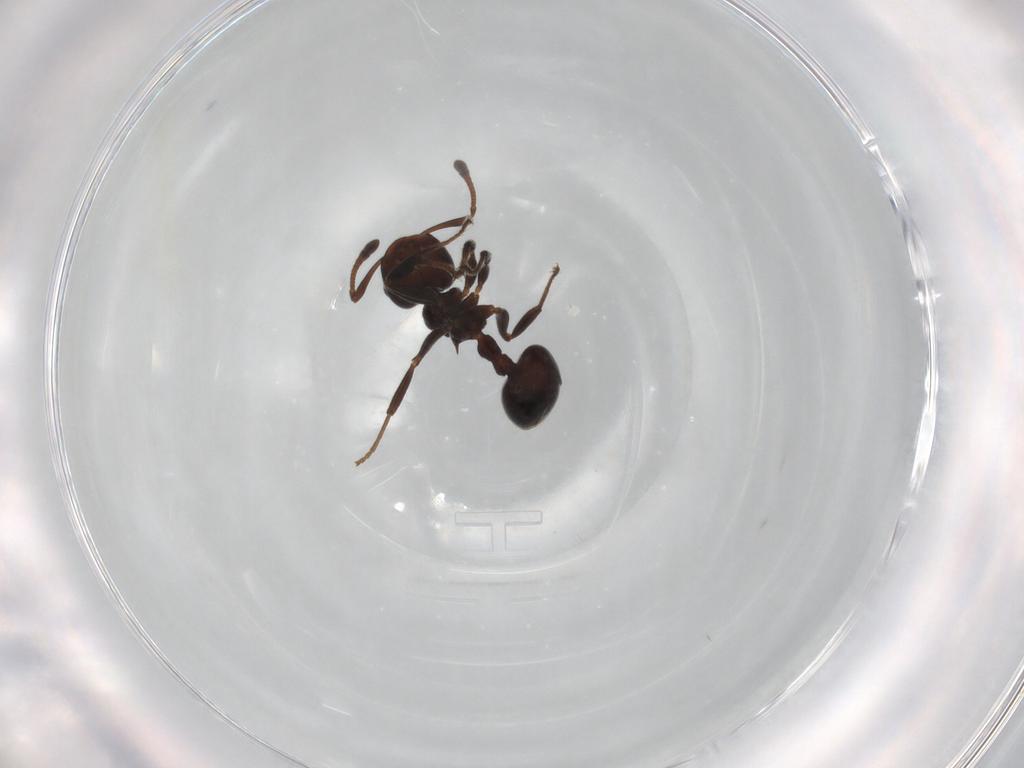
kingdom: Animalia
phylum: Arthropoda
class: Insecta
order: Hymenoptera
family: Formicidae
